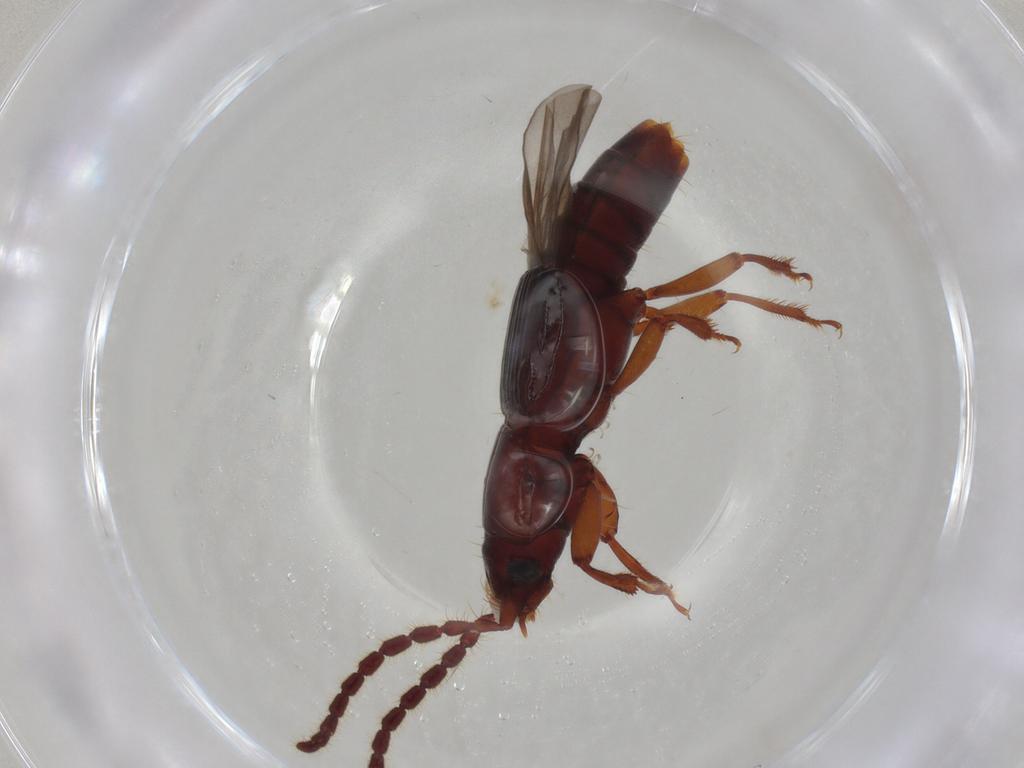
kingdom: Animalia
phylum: Arthropoda
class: Insecta
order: Coleoptera
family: Staphylinidae
